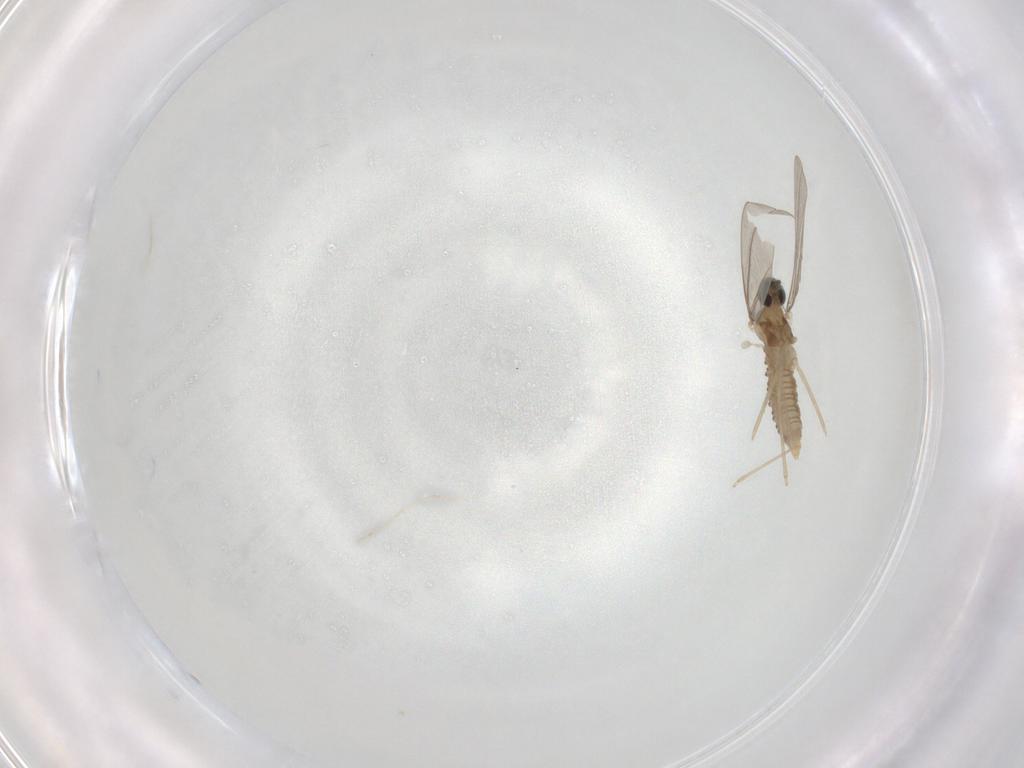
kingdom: Animalia
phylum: Arthropoda
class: Insecta
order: Diptera
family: Cecidomyiidae
